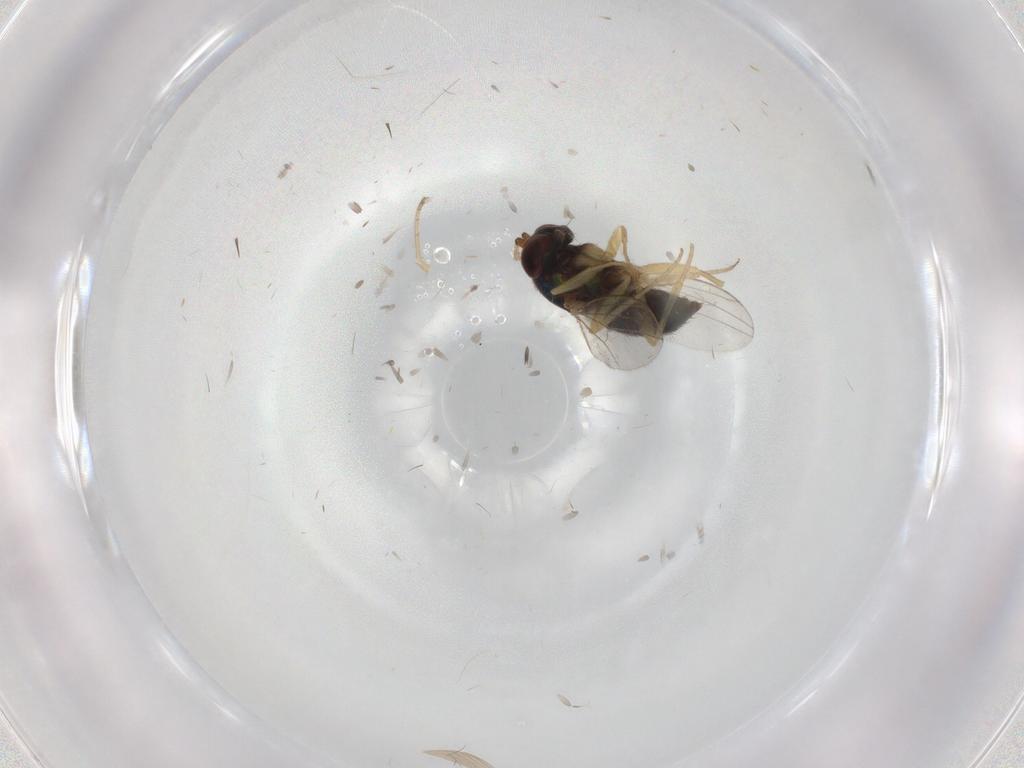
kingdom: Animalia
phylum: Arthropoda
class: Insecta
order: Diptera
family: Dolichopodidae
